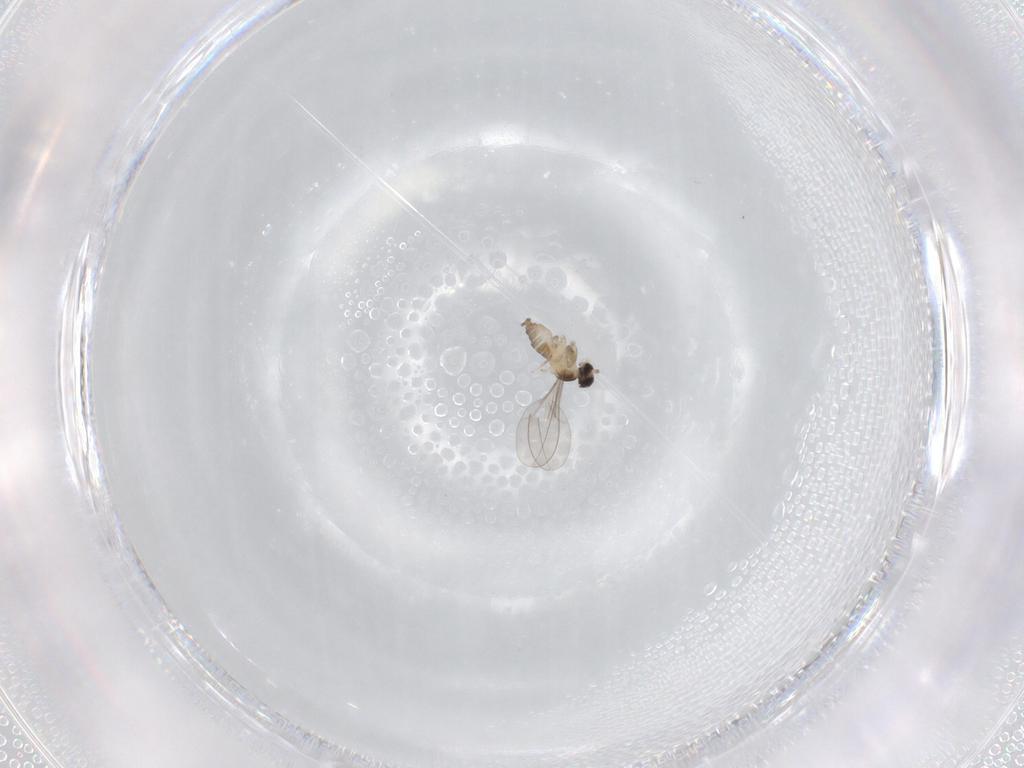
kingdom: Animalia
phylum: Arthropoda
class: Insecta
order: Diptera
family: Cecidomyiidae
